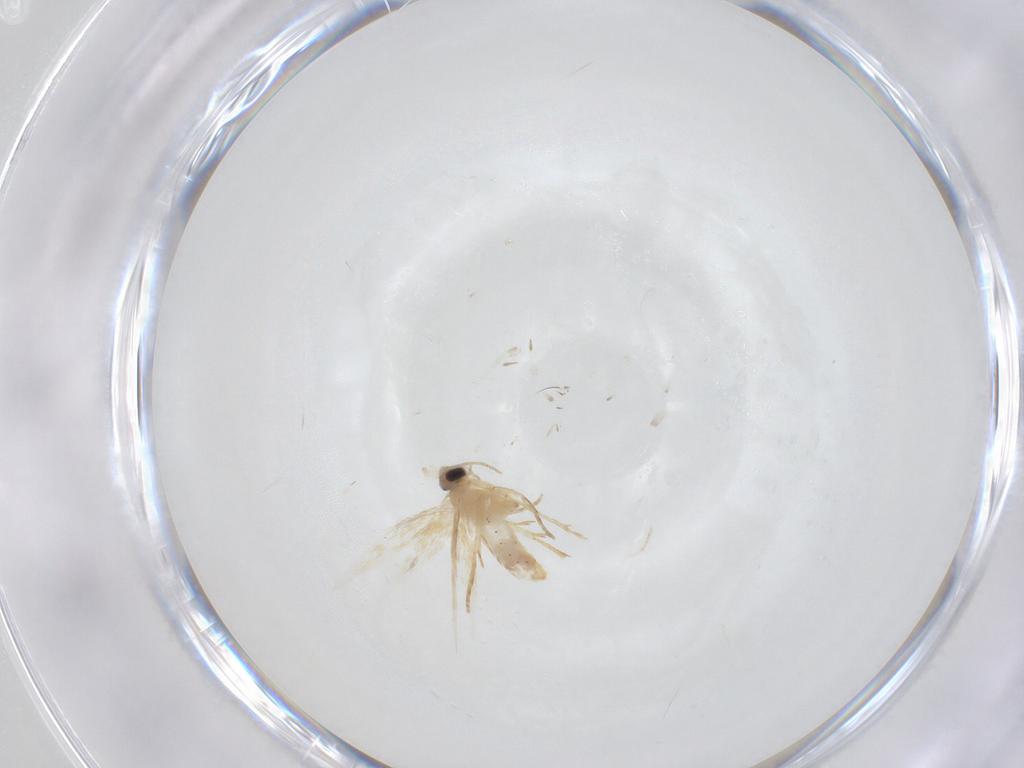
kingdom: Animalia
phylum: Arthropoda
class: Insecta
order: Lepidoptera
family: Nepticulidae
